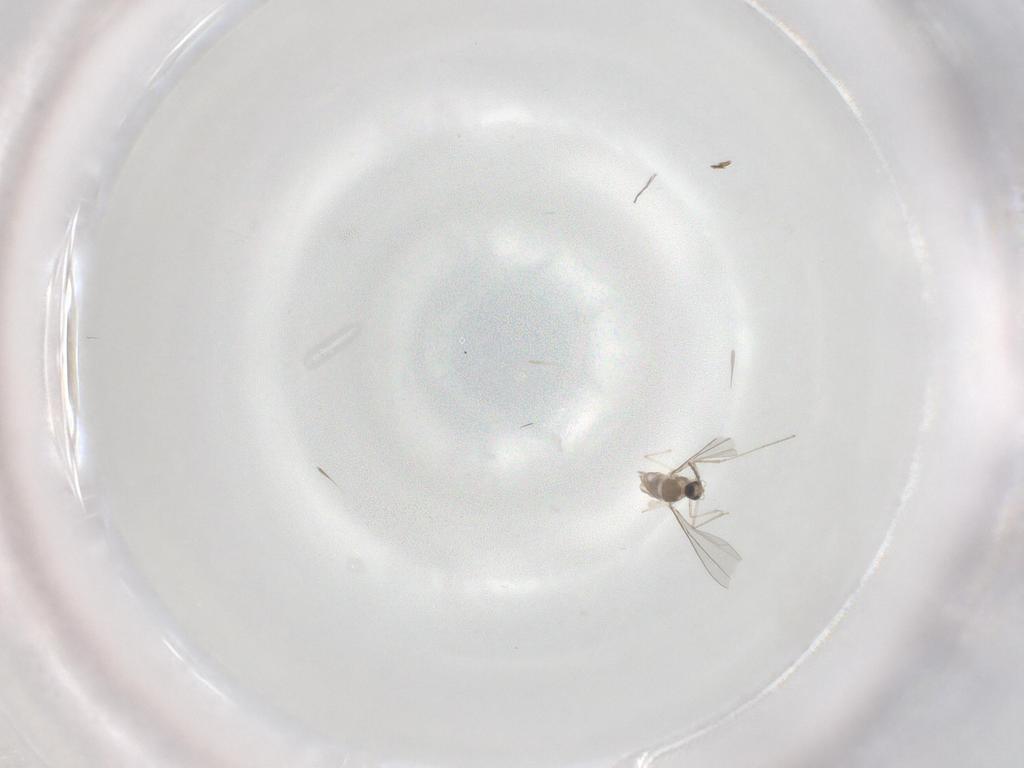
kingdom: Animalia
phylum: Arthropoda
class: Insecta
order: Diptera
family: Cecidomyiidae
